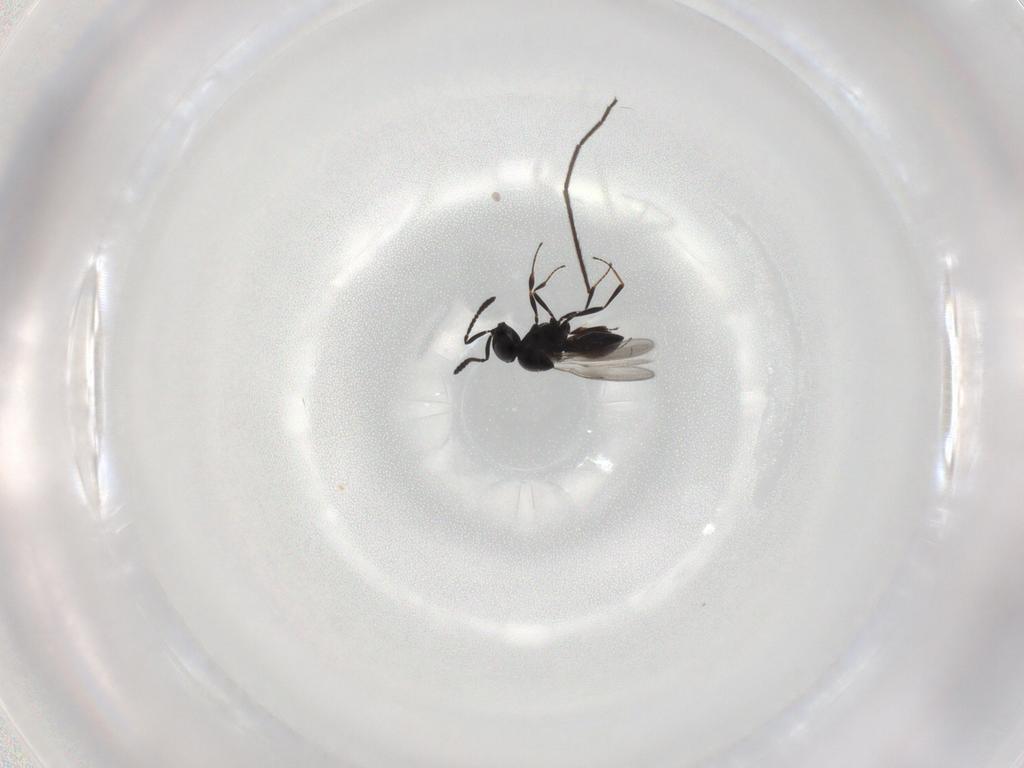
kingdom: Animalia
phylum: Arthropoda
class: Insecta
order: Hymenoptera
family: Scelionidae
